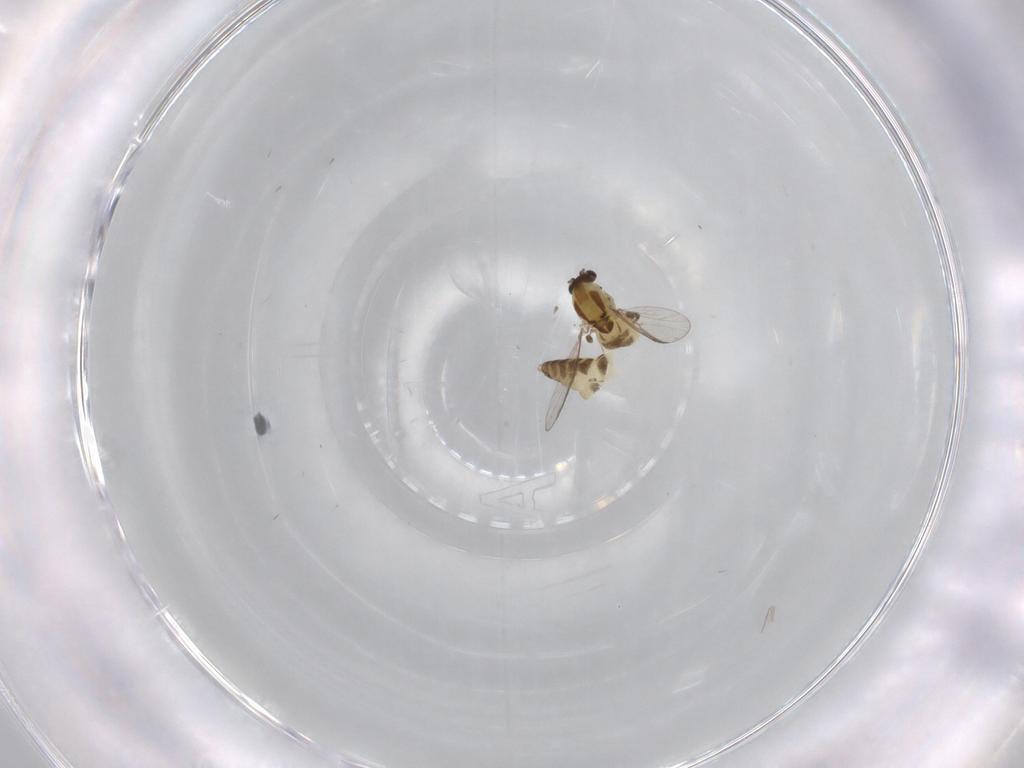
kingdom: Animalia
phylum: Arthropoda
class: Insecta
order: Diptera
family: Chironomidae
